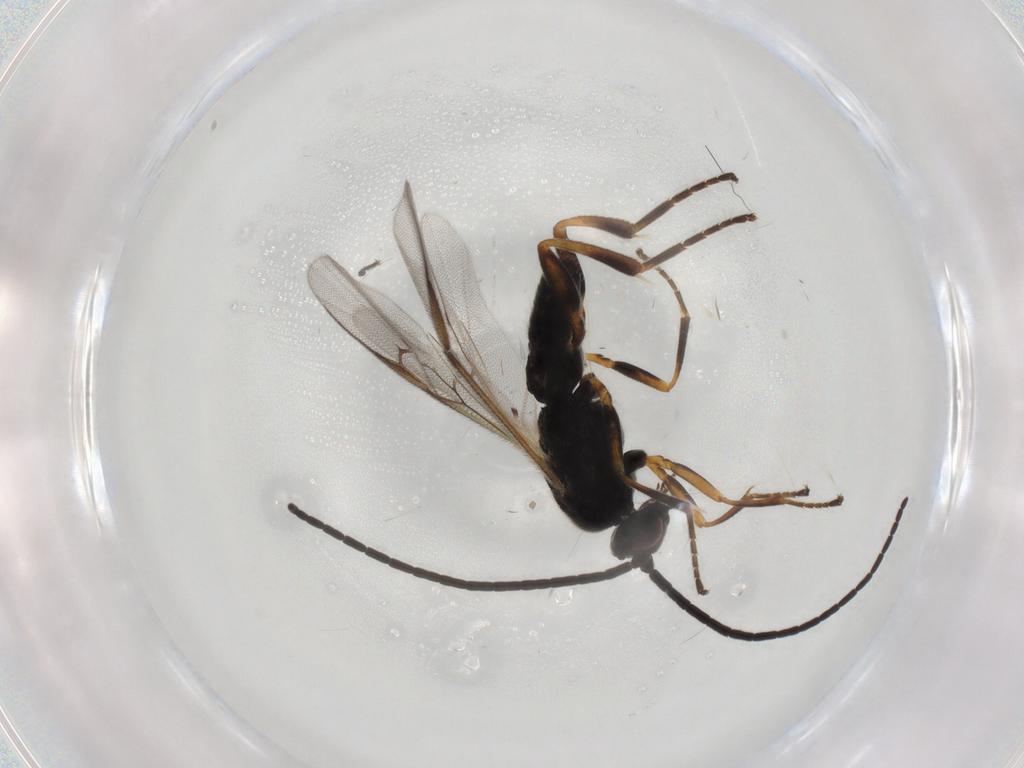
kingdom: Animalia
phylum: Arthropoda
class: Insecta
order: Hymenoptera
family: Braconidae
